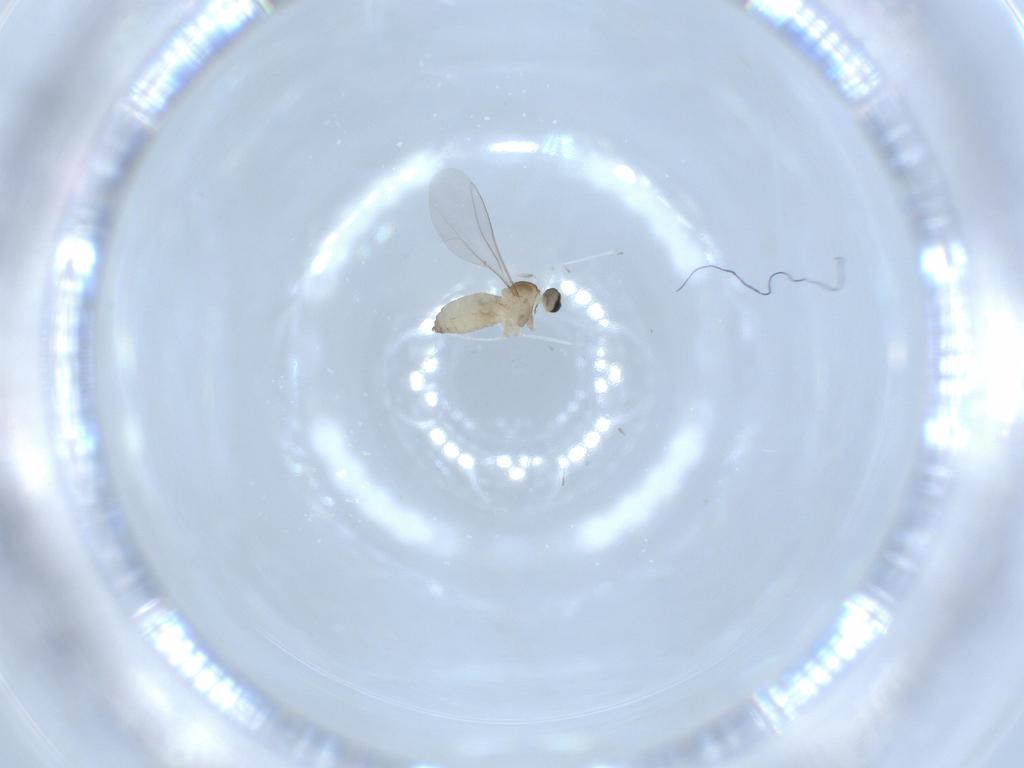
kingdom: Animalia
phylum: Arthropoda
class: Insecta
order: Diptera
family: Cecidomyiidae
